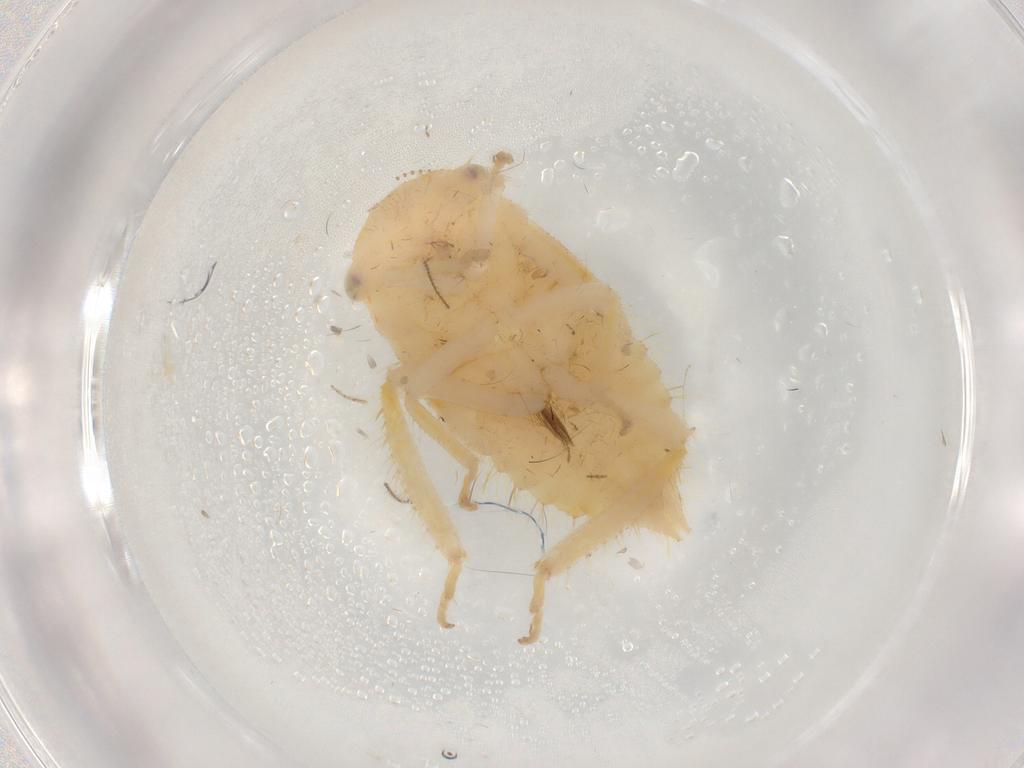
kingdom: Animalia
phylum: Arthropoda
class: Insecta
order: Hemiptera
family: Cicadellidae
